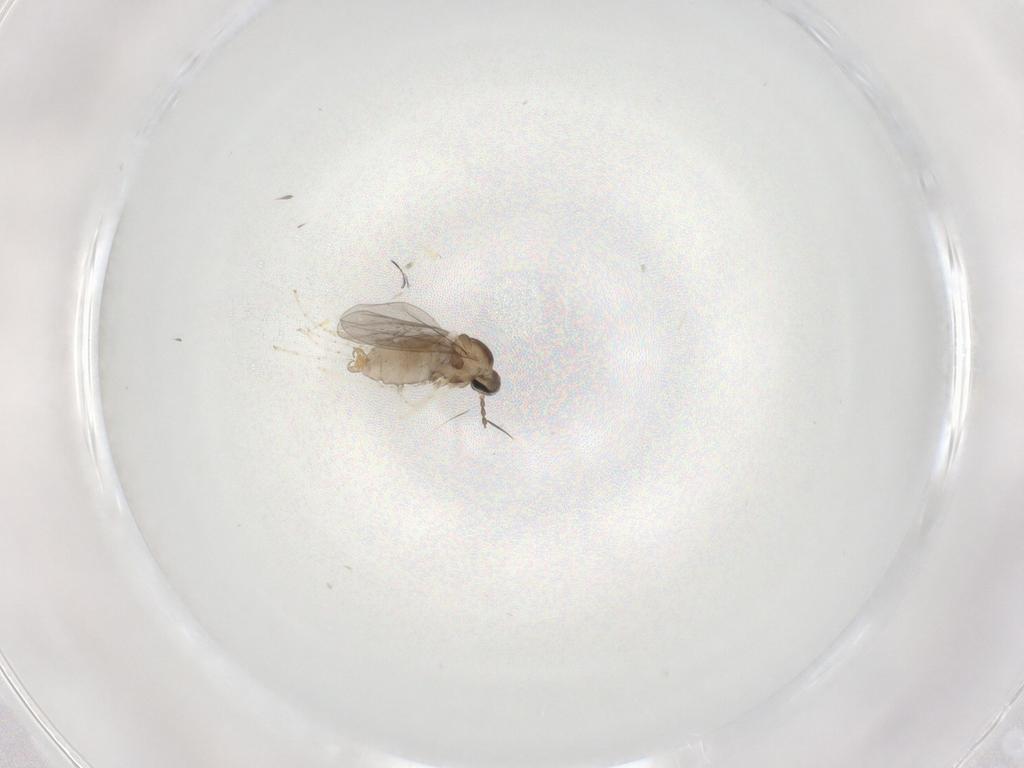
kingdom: Animalia
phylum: Arthropoda
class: Insecta
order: Diptera
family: Cecidomyiidae
